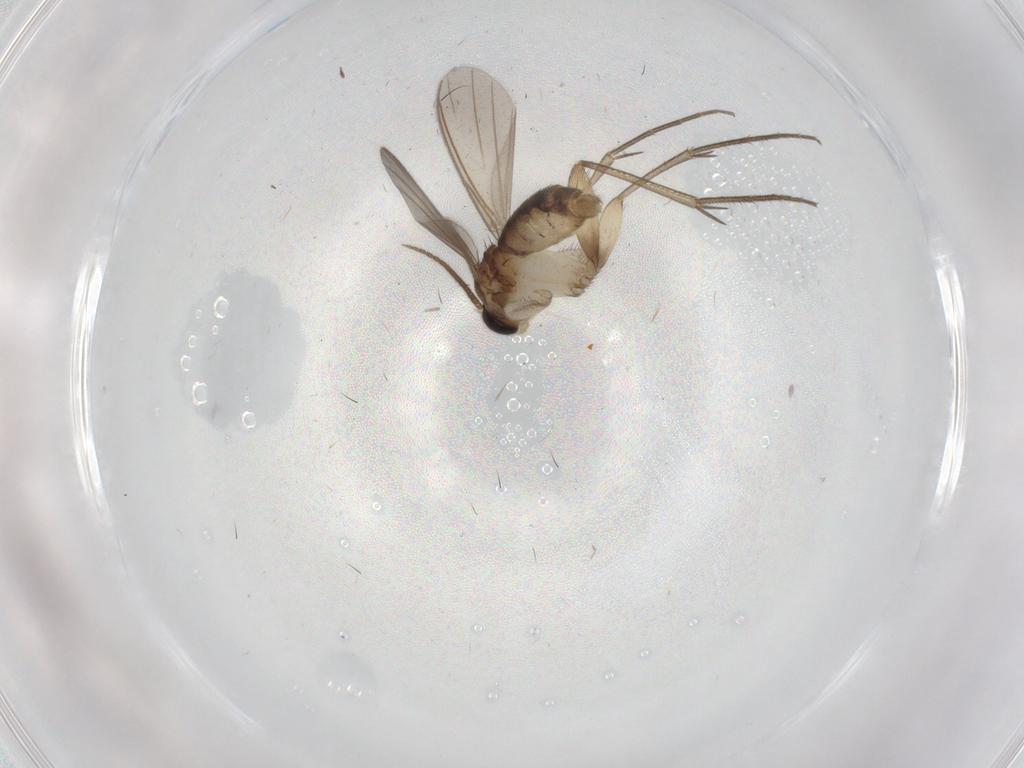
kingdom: Animalia
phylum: Arthropoda
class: Insecta
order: Diptera
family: Mycetophilidae
